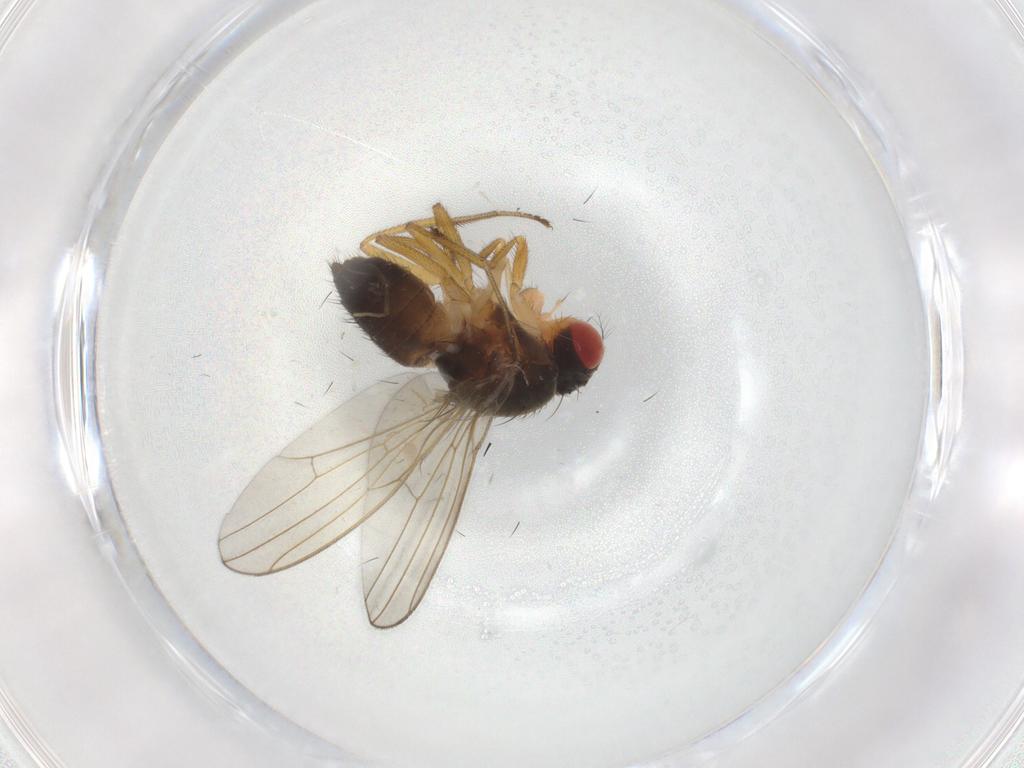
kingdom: Animalia
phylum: Arthropoda
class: Insecta
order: Diptera
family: Drosophilidae
